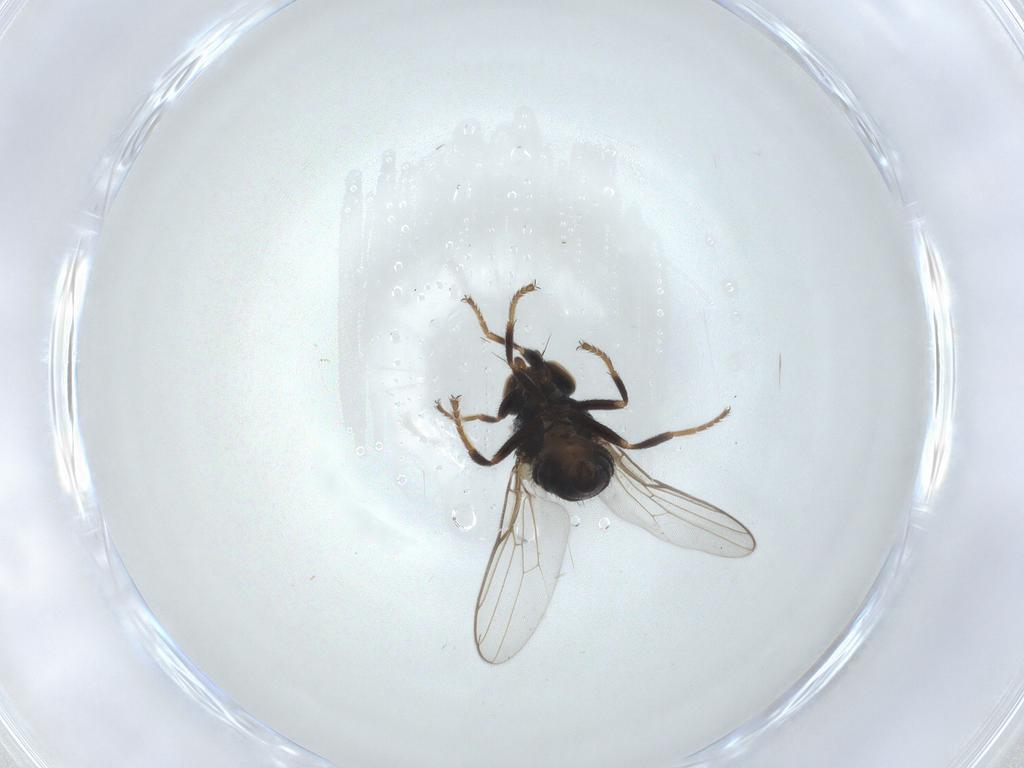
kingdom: Animalia
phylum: Arthropoda
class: Insecta
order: Diptera
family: Chloropidae
